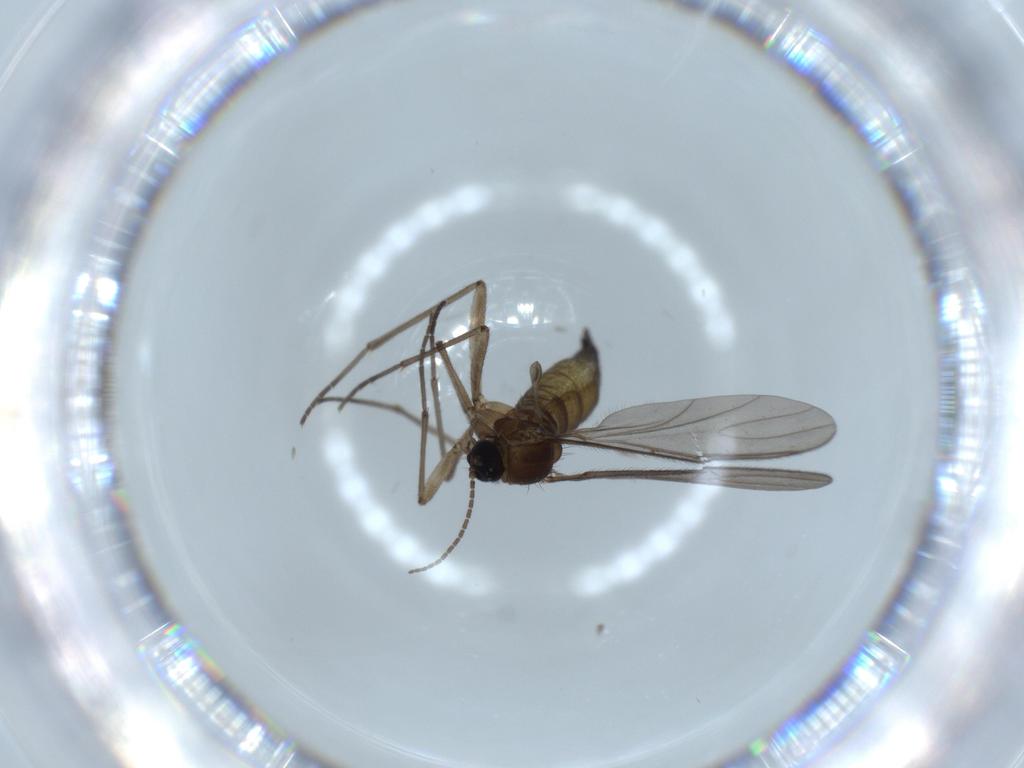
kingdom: Animalia
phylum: Arthropoda
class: Insecta
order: Diptera
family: Sciaridae
